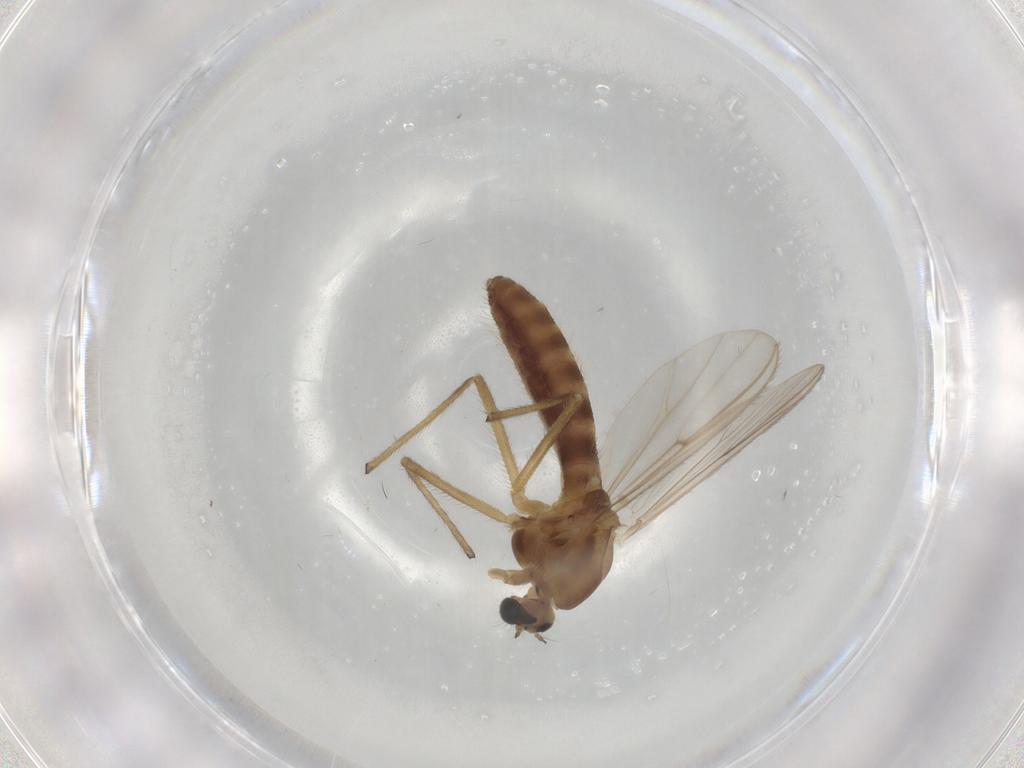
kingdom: Animalia
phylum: Arthropoda
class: Insecta
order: Diptera
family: Chironomidae
